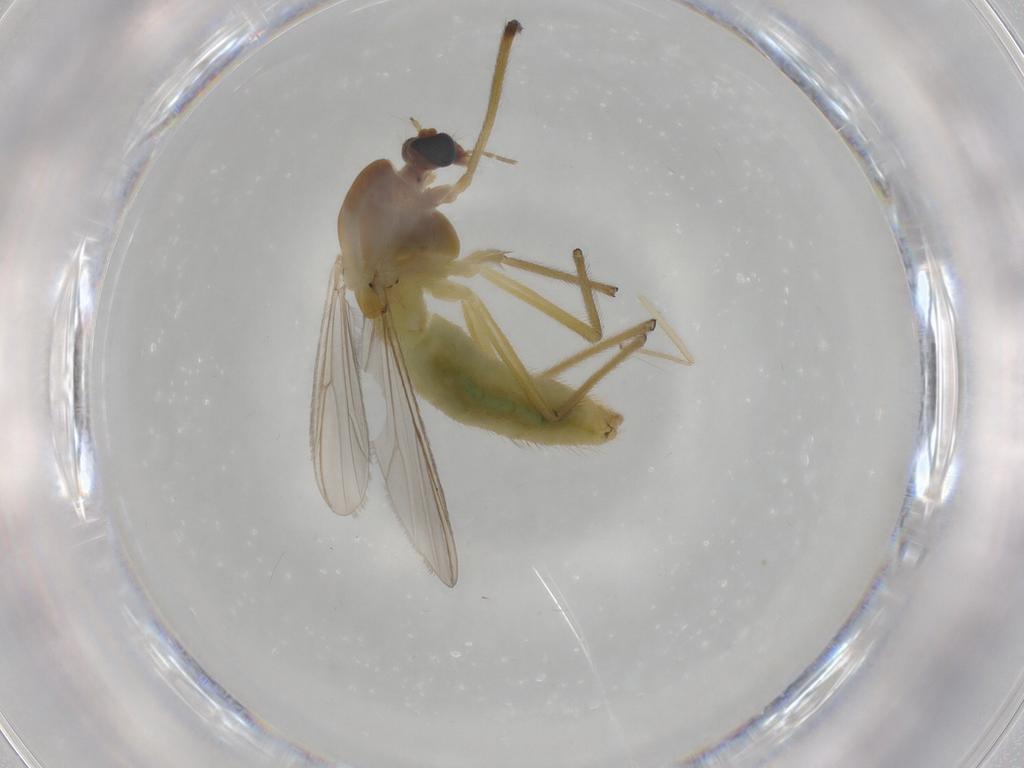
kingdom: Animalia
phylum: Arthropoda
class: Insecta
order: Diptera
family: Chironomidae
